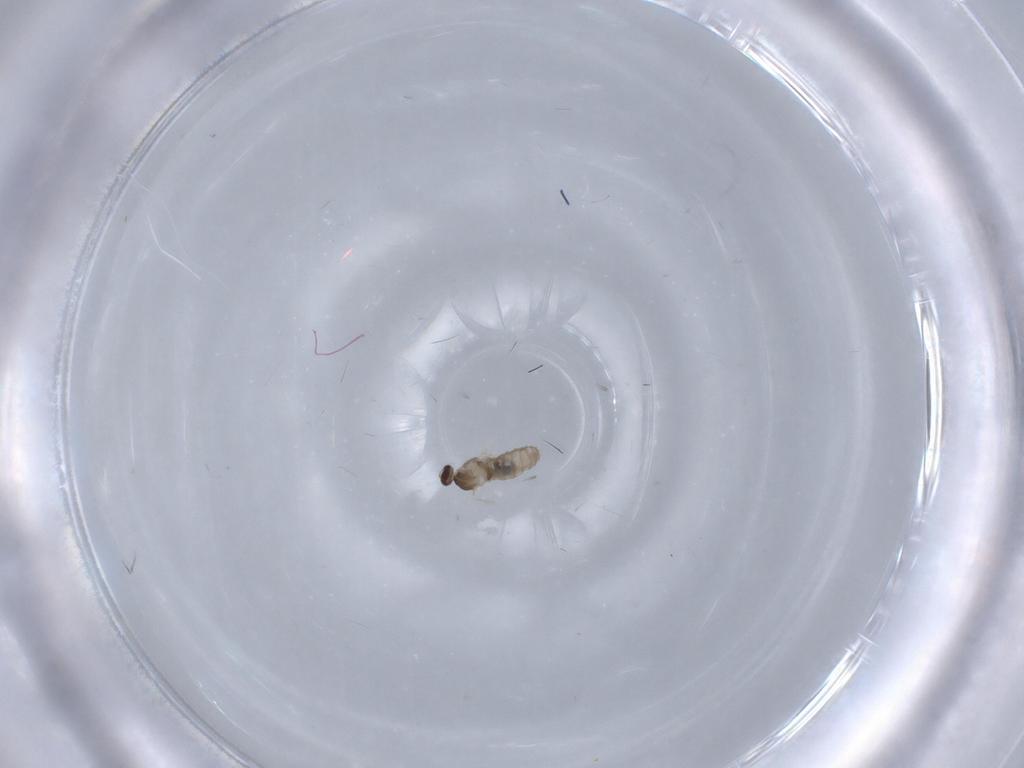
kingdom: Animalia
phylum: Arthropoda
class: Insecta
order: Diptera
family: Cecidomyiidae
